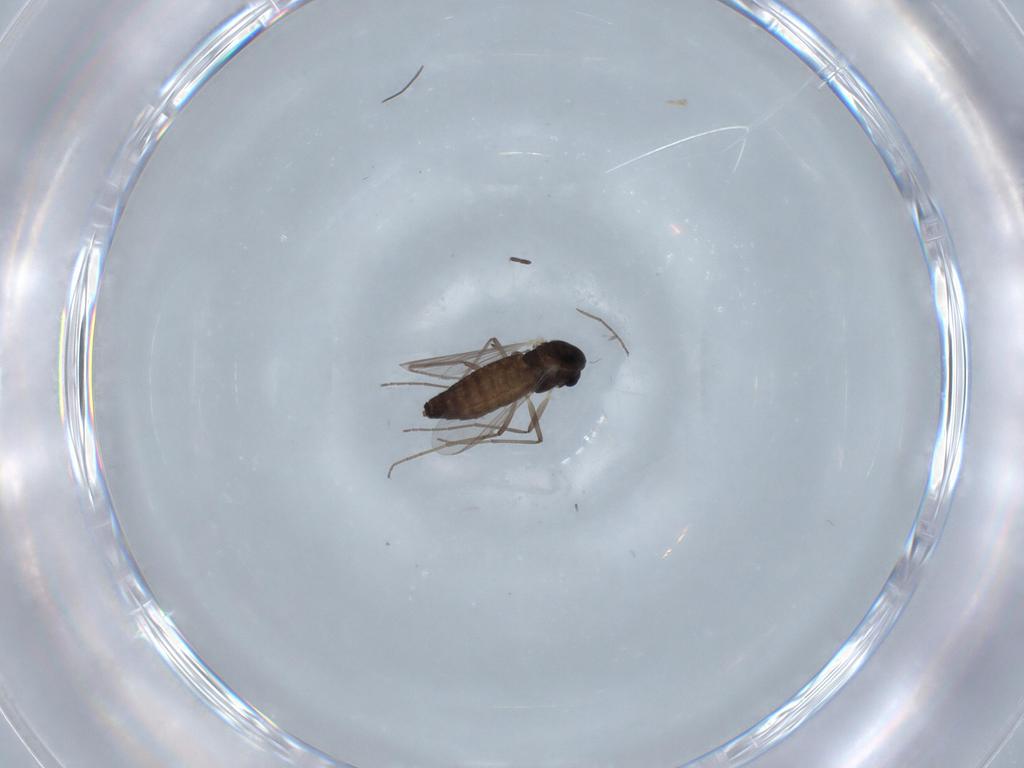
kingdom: Animalia
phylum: Arthropoda
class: Insecta
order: Diptera
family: Chironomidae
